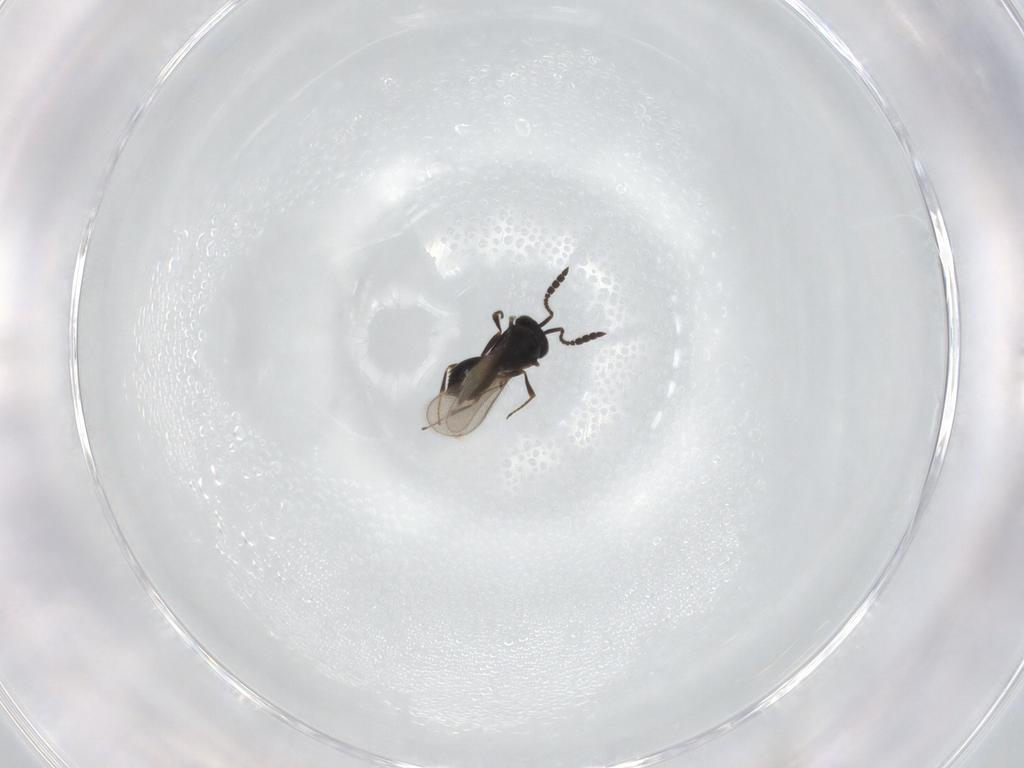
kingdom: Animalia
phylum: Arthropoda
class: Insecta
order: Hymenoptera
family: Scelionidae
